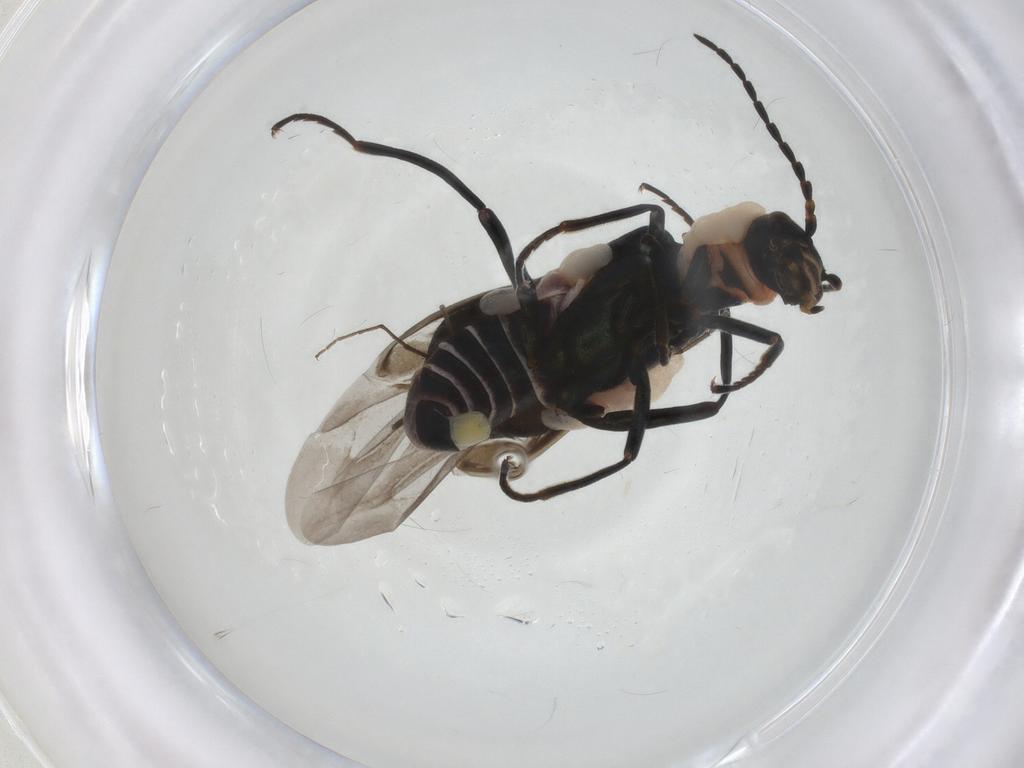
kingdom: Animalia
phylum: Arthropoda
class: Insecta
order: Coleoptera
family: Melyridae
